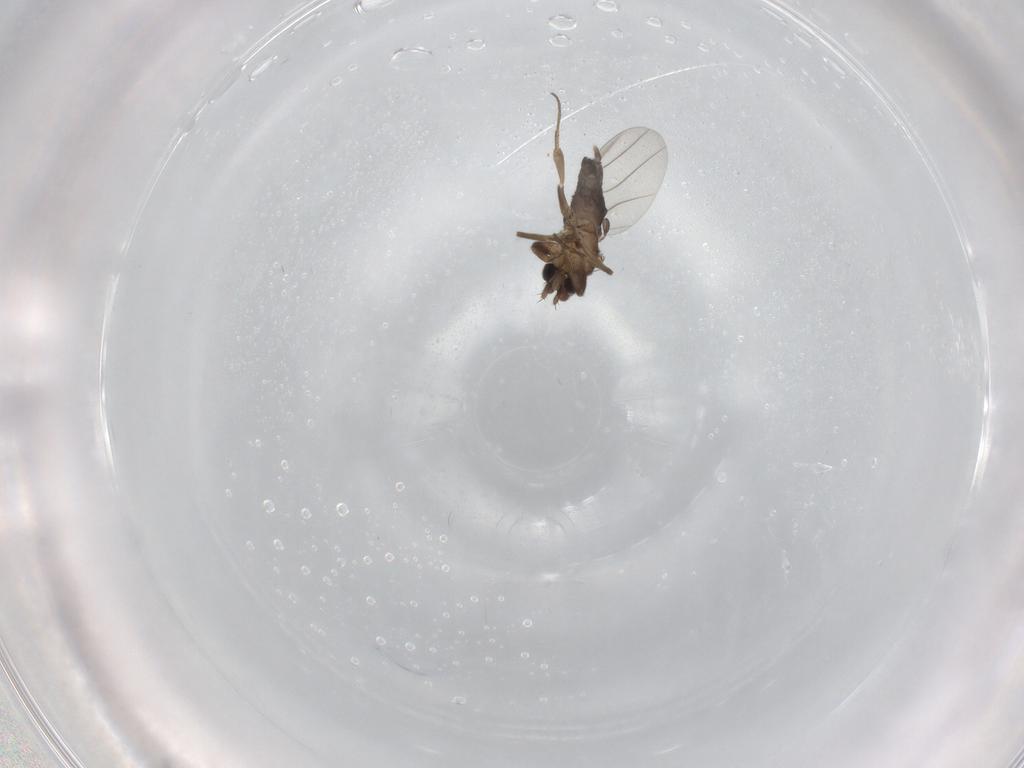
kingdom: Animalia
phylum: Arthropoda
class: Insecta
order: Diptera
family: Phoridae
